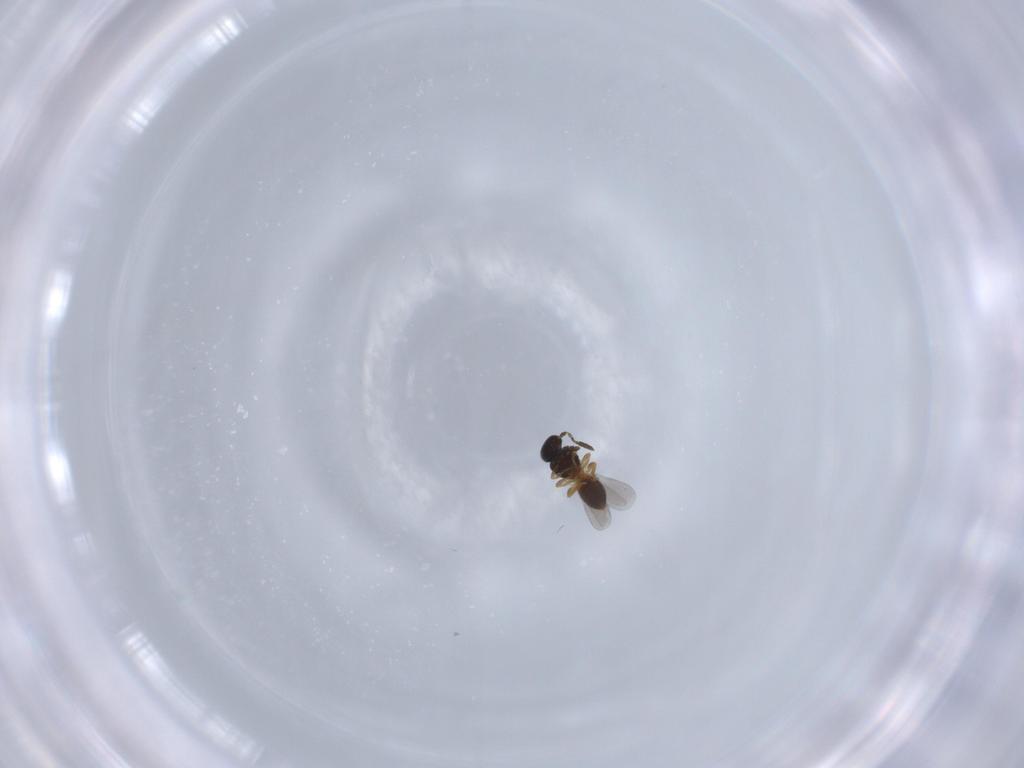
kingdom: Animalia
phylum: Arthropoda
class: Insecta
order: Hymenoptera
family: Platygastridae
